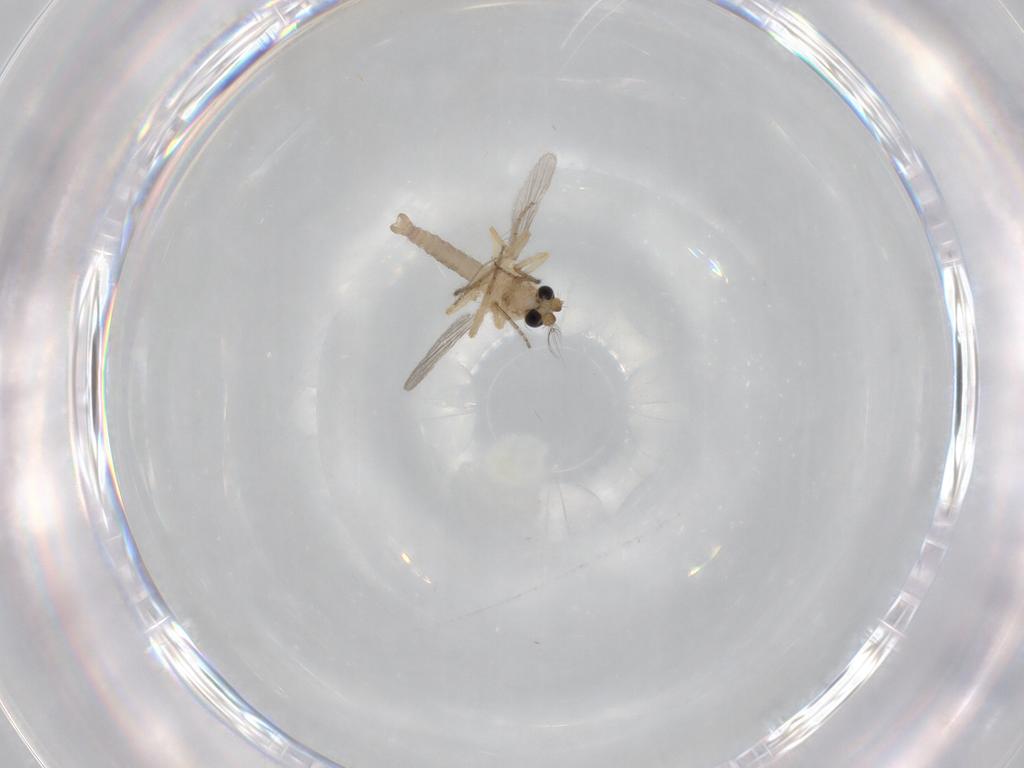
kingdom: Animalia
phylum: Arthropoda
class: Insecta
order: Diptera
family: Ceratopogonidae
